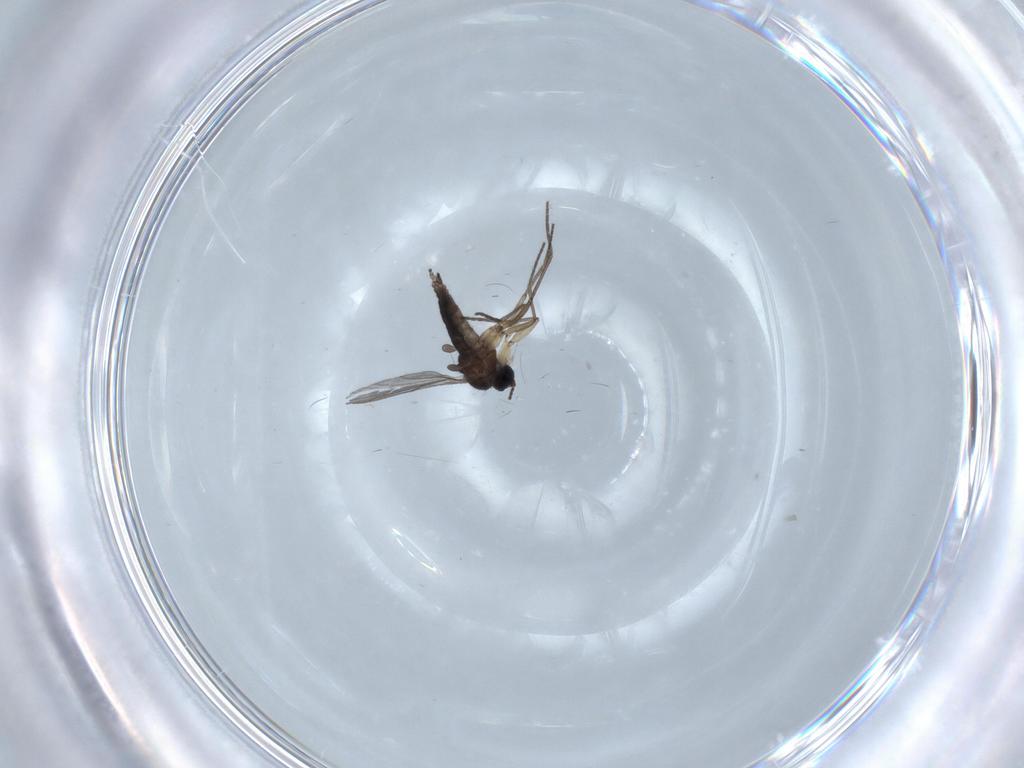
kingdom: Animalia
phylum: Arthropoda
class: Insecta
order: Diptera
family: Sciaridae
